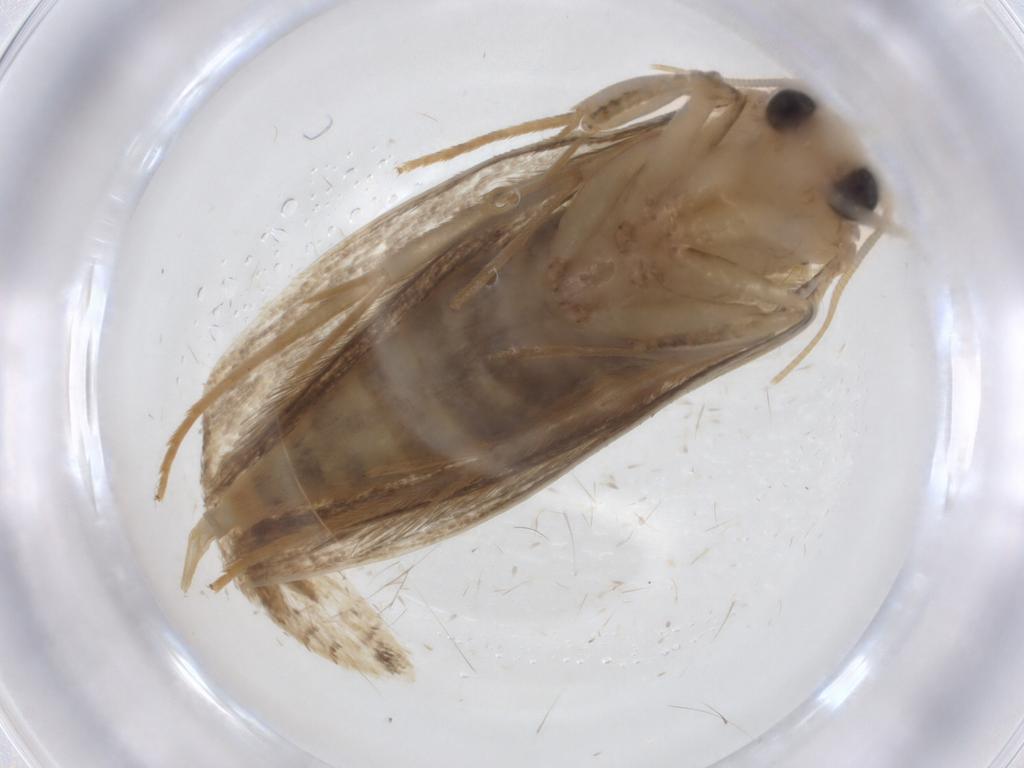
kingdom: Animalia
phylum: Arthropoda
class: Insecta
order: Lepidoptera
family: Nepticulidae
